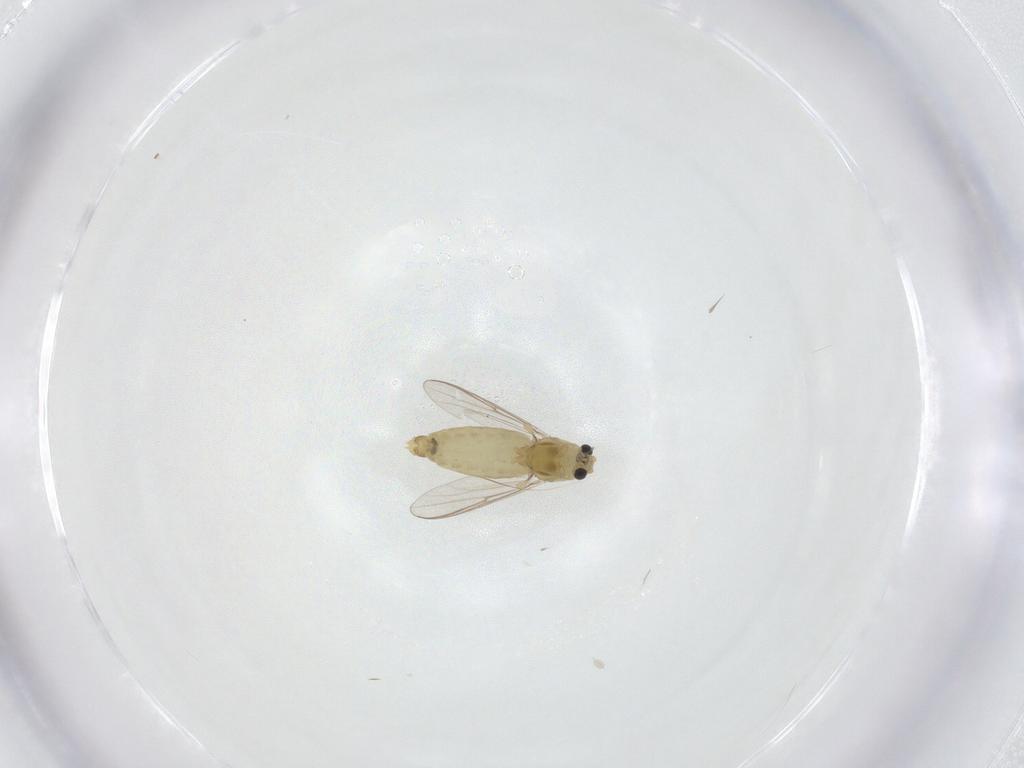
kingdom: Animalia
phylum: Arthropoda
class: Insecta
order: Diptera
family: Chironomidae
